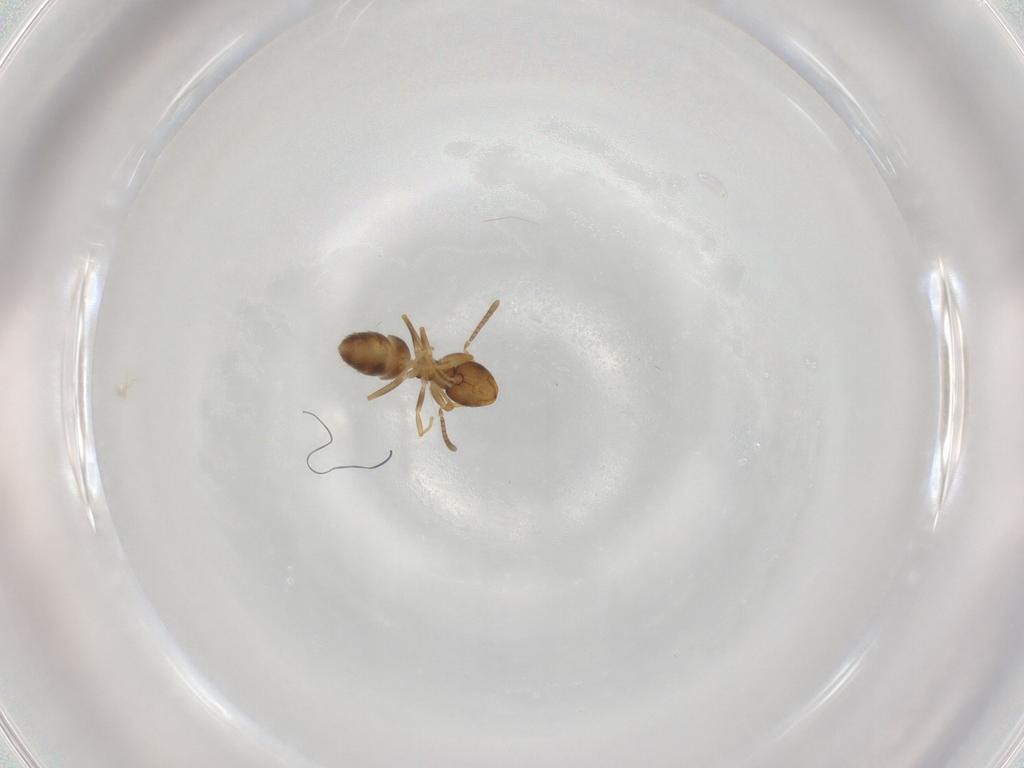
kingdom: Animalia
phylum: Arthropoda
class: Insecta
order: Hymenoptera
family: Formicidae
